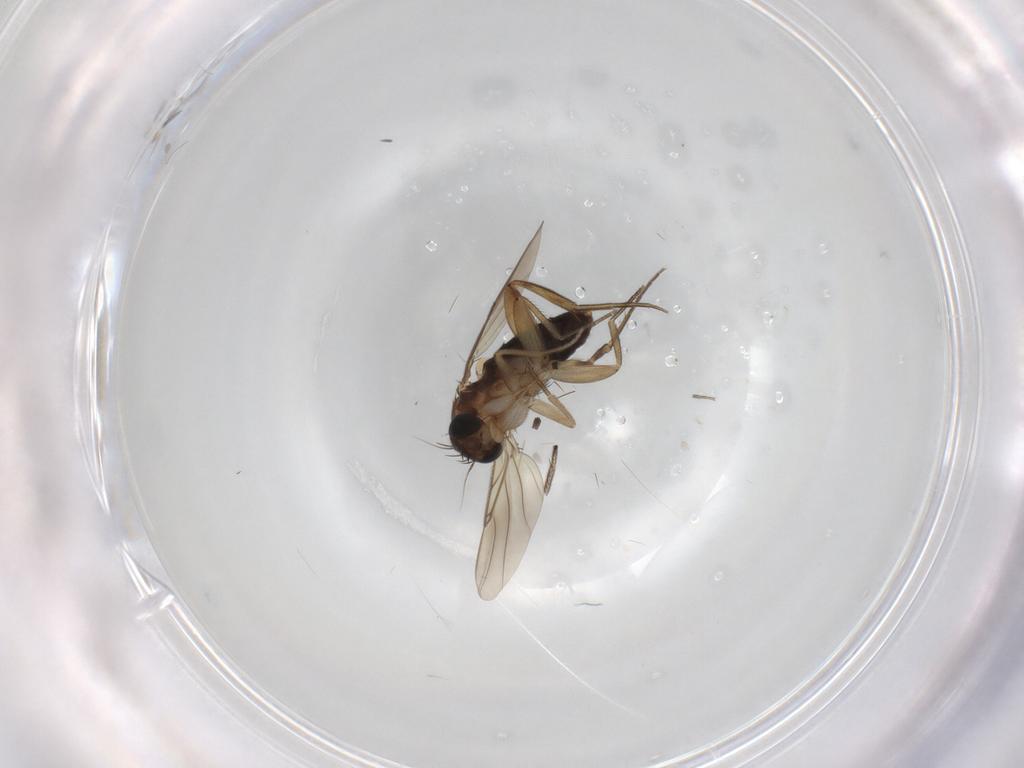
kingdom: Animalia
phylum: Arthropoda
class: Insecta
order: Diptera
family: Phoridae
